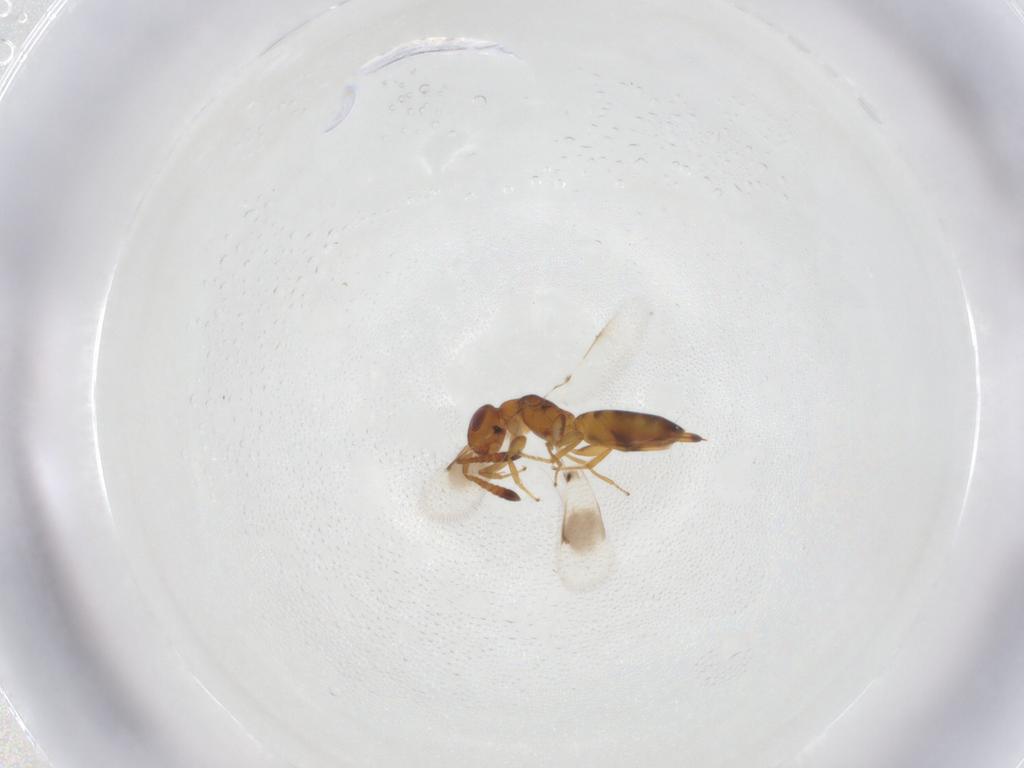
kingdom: Animalia
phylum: Arthropoda
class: Insecta
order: Hymenoptera
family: Cerocephalidae
